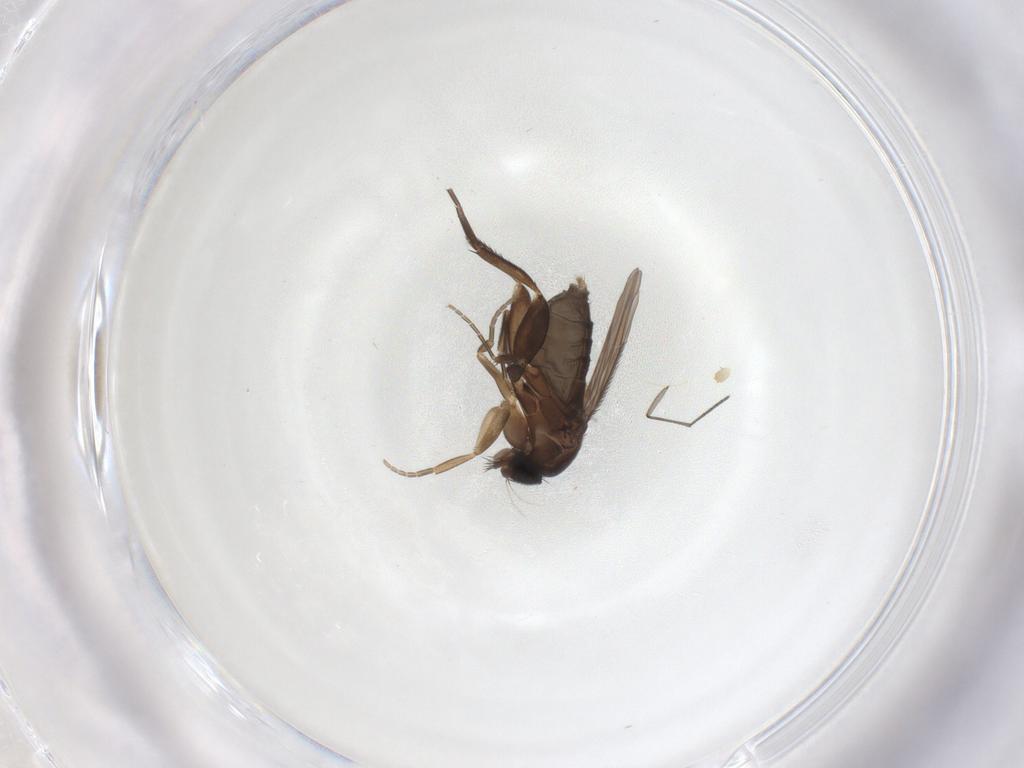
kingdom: Animalia
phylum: Arthropoda
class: Insecta
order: Diptera
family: Phoridae
